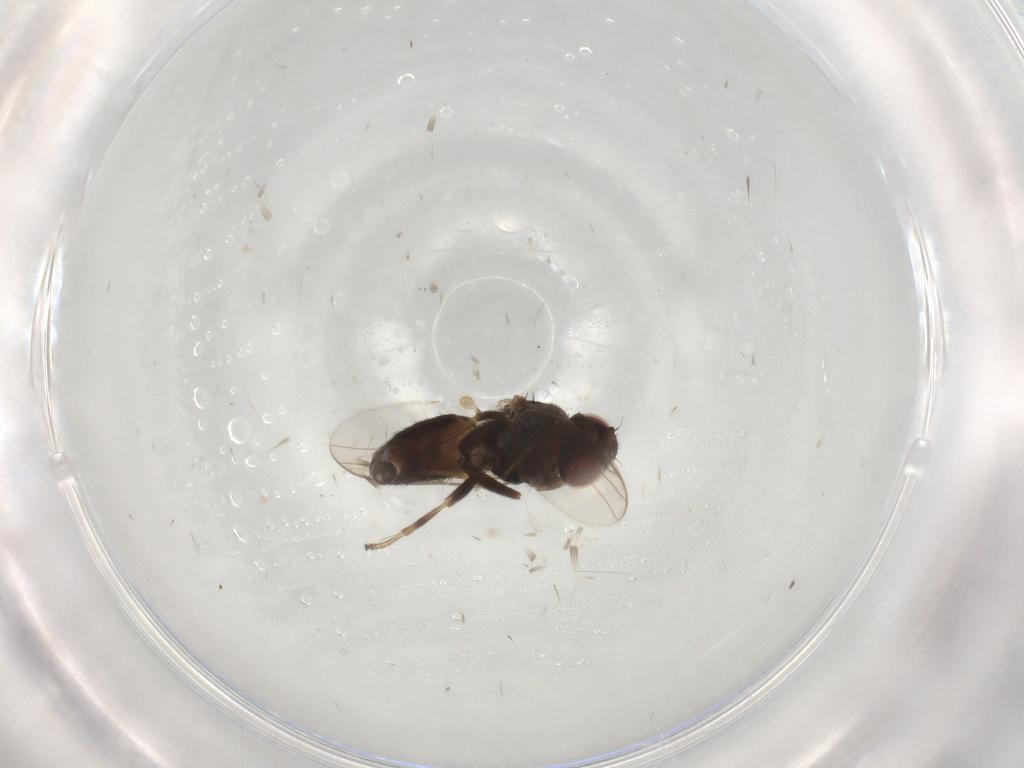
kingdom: Animalia
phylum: Arthropoda
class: Insecta
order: Diptera
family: Chloropidae
